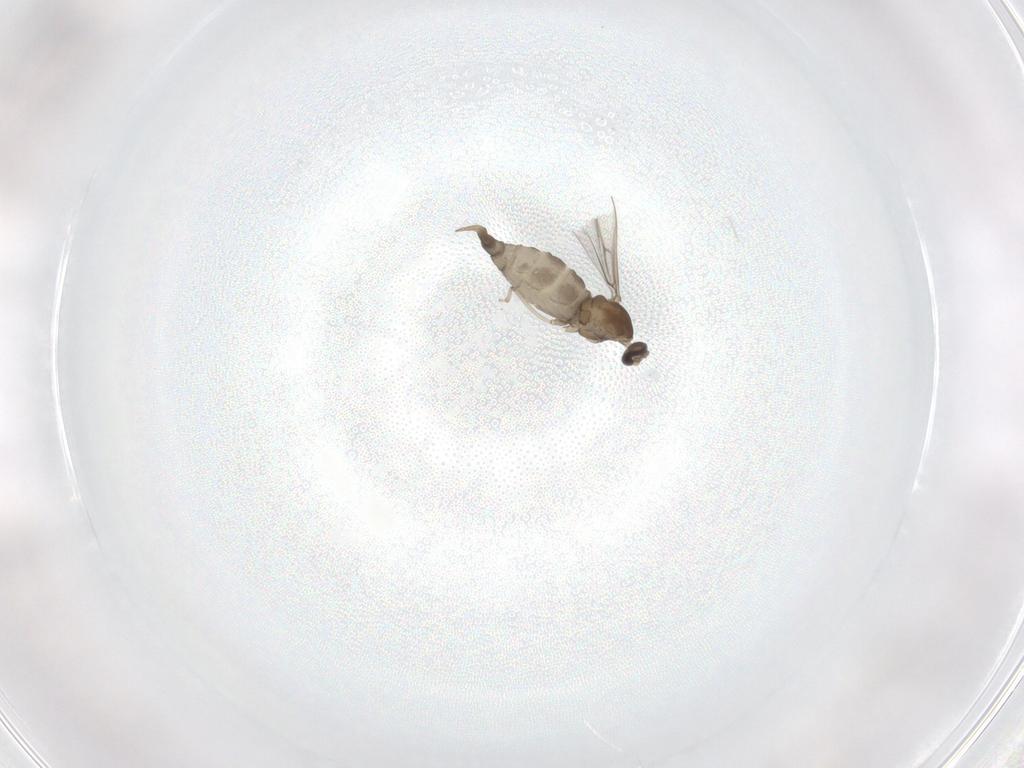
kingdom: Animalia
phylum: Arthropoda
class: Insecta
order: Diptera
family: Cecidomyiidae
